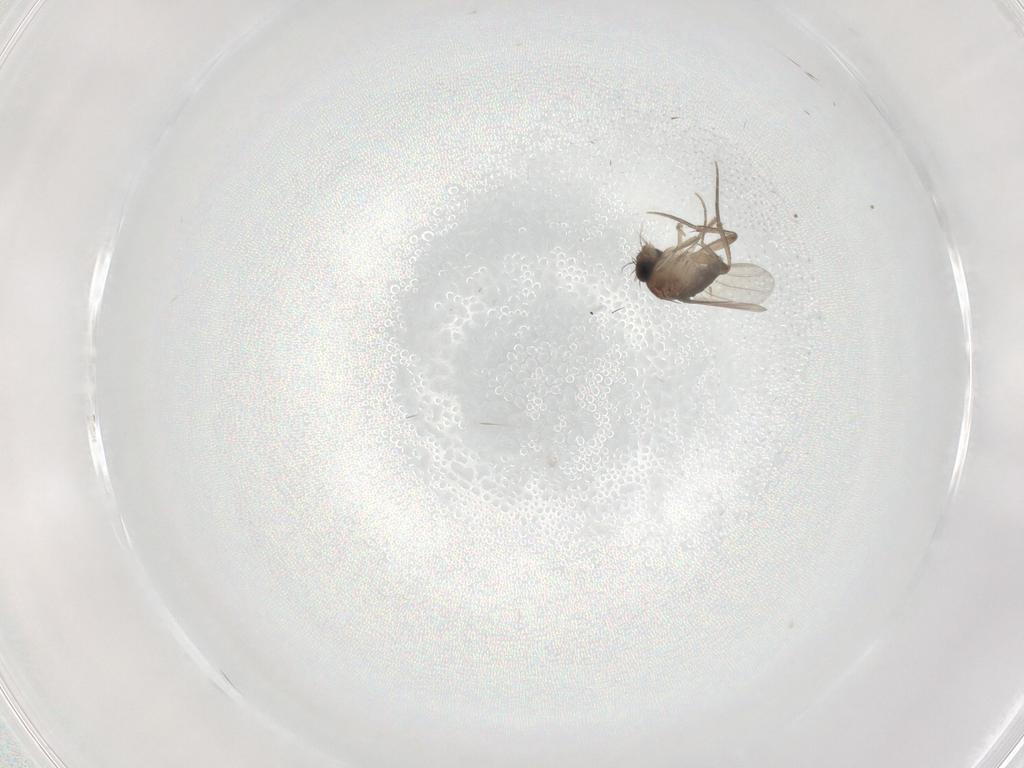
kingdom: Animalia
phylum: Arthropoda
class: Insecta
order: Diptera
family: Phoridae
